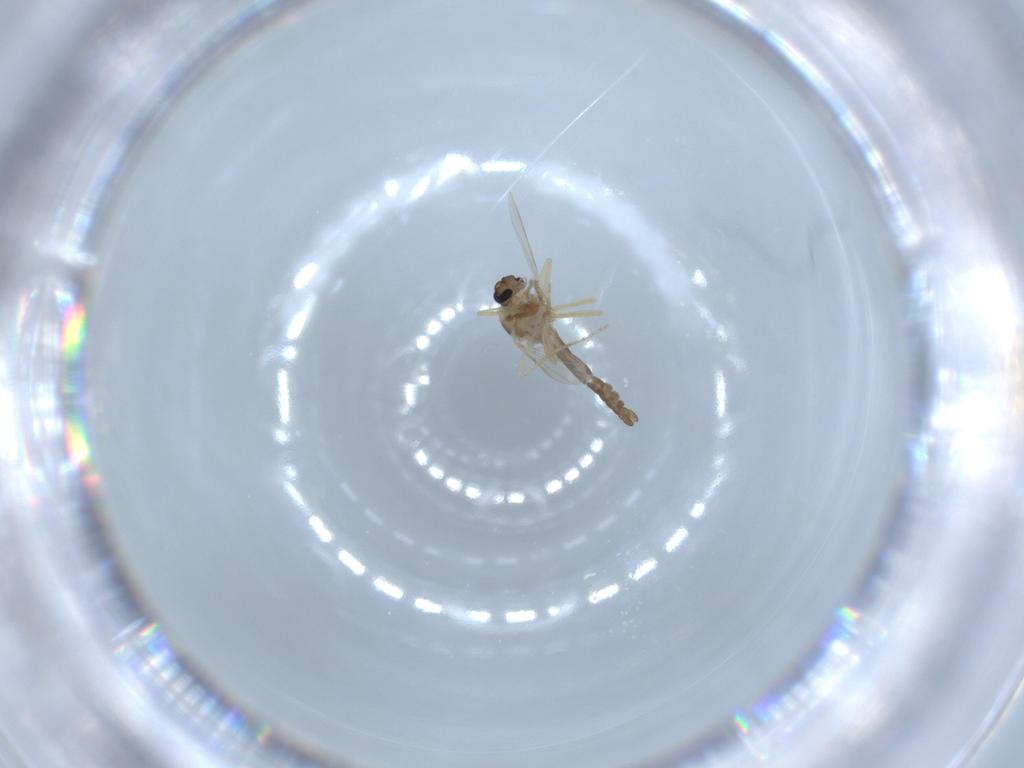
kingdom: Animalia
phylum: Arthropoda
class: Insecta
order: Diptera
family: Ceratopogonidae
